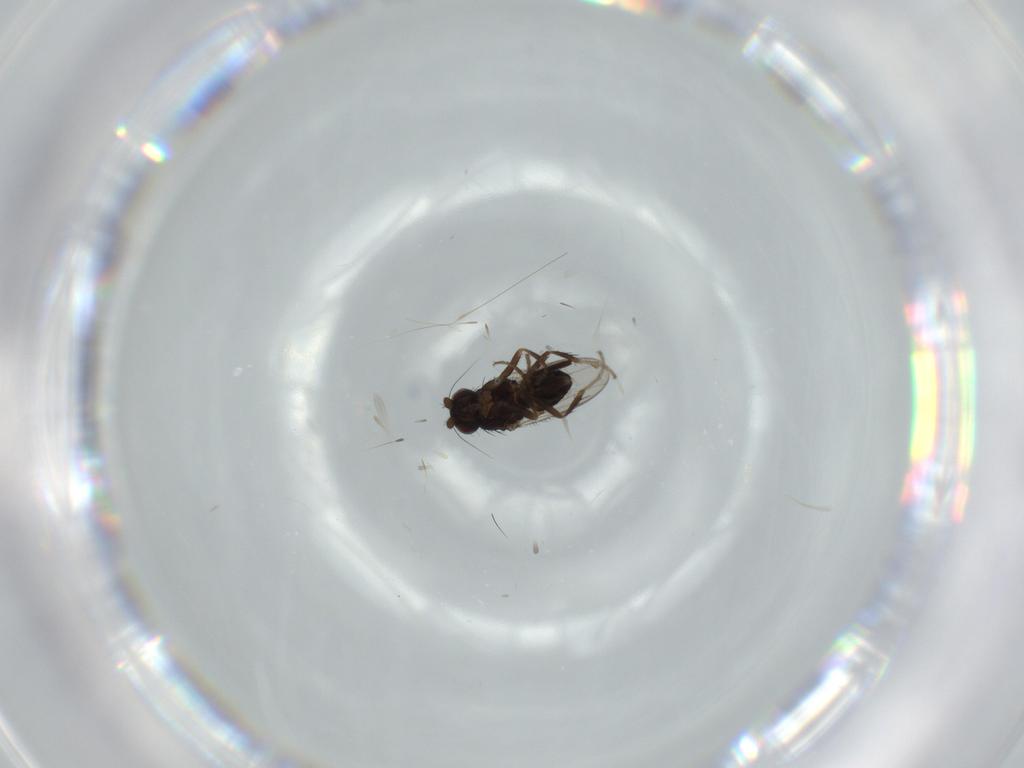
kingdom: Animalia
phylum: Arthropoda
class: Insecta
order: Diptera
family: Sphaeroceridae
